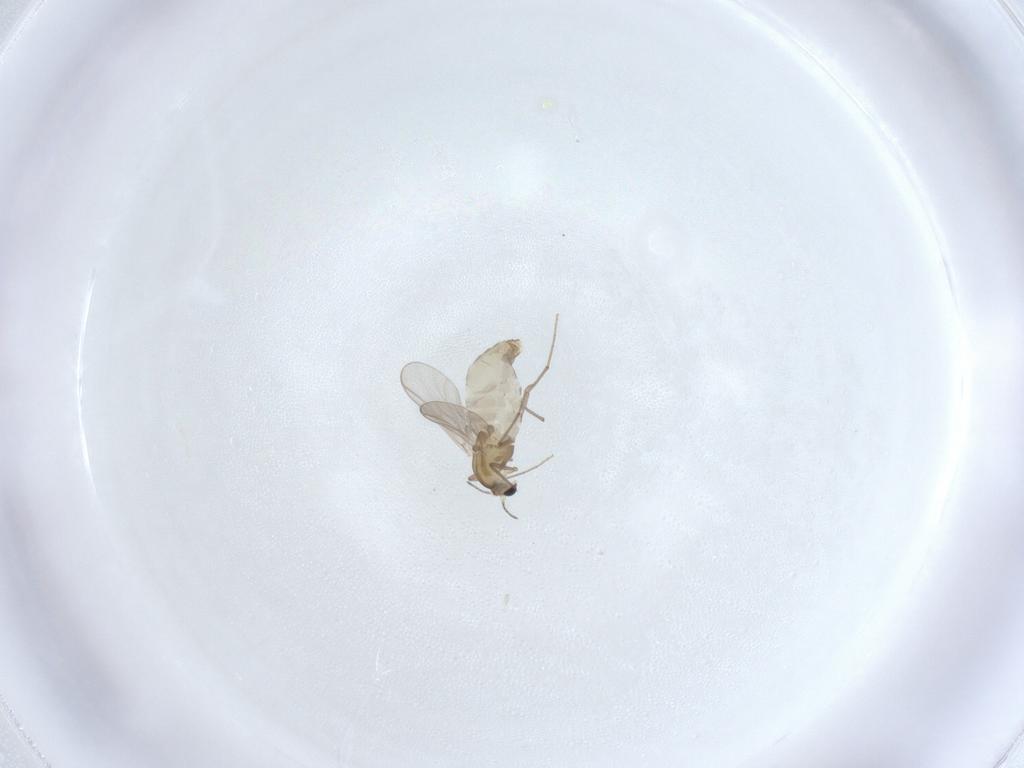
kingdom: Animalia
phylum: Arthropoda
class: Insecta
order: Diptera
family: Chironomidae
